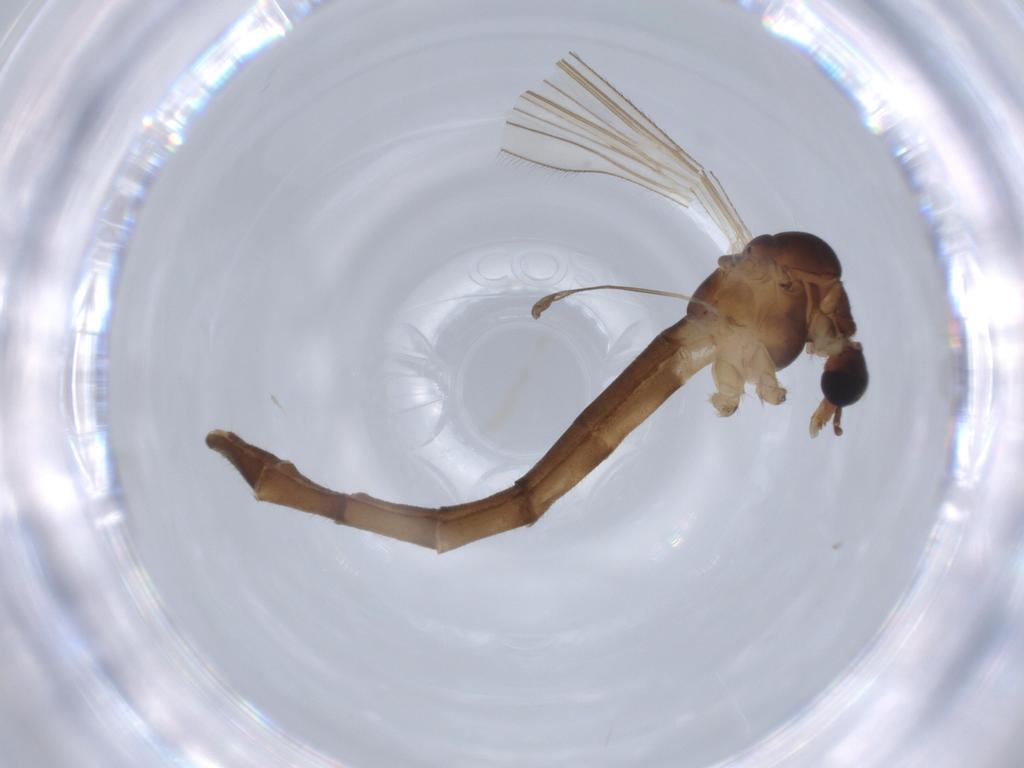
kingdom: Animalia
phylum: Arthropoda
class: Insecta
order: Diptera
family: Limoniidae
